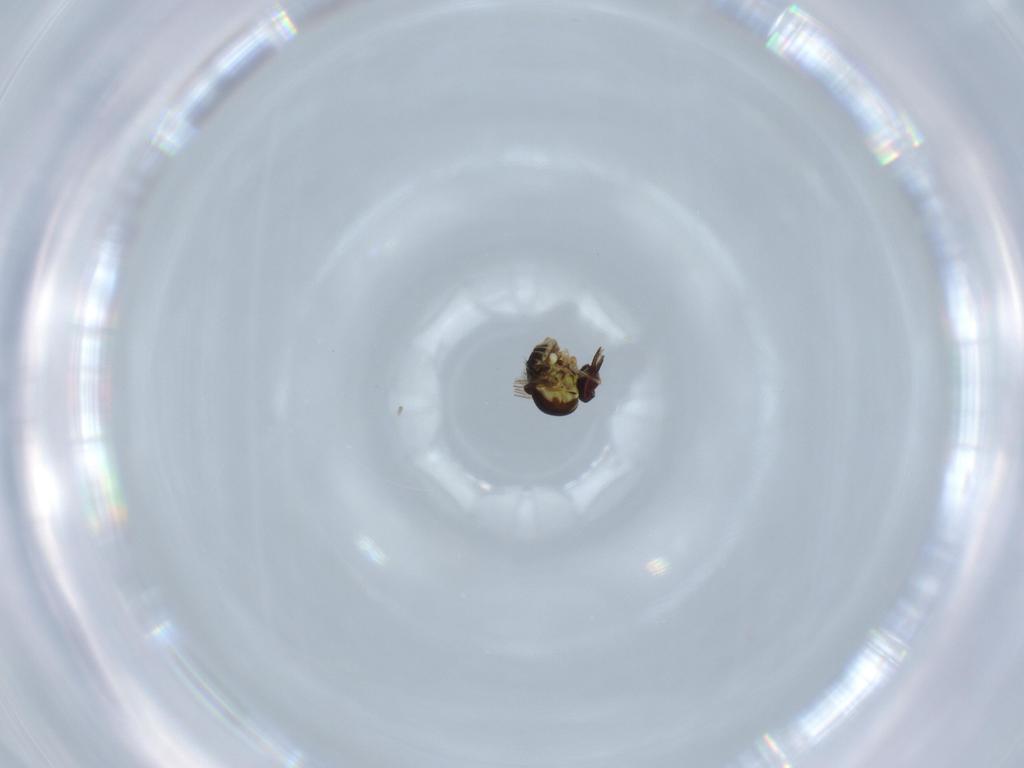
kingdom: Animalia
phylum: Arthropoda
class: Insecta
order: Diptera
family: Mythicomyiidae
